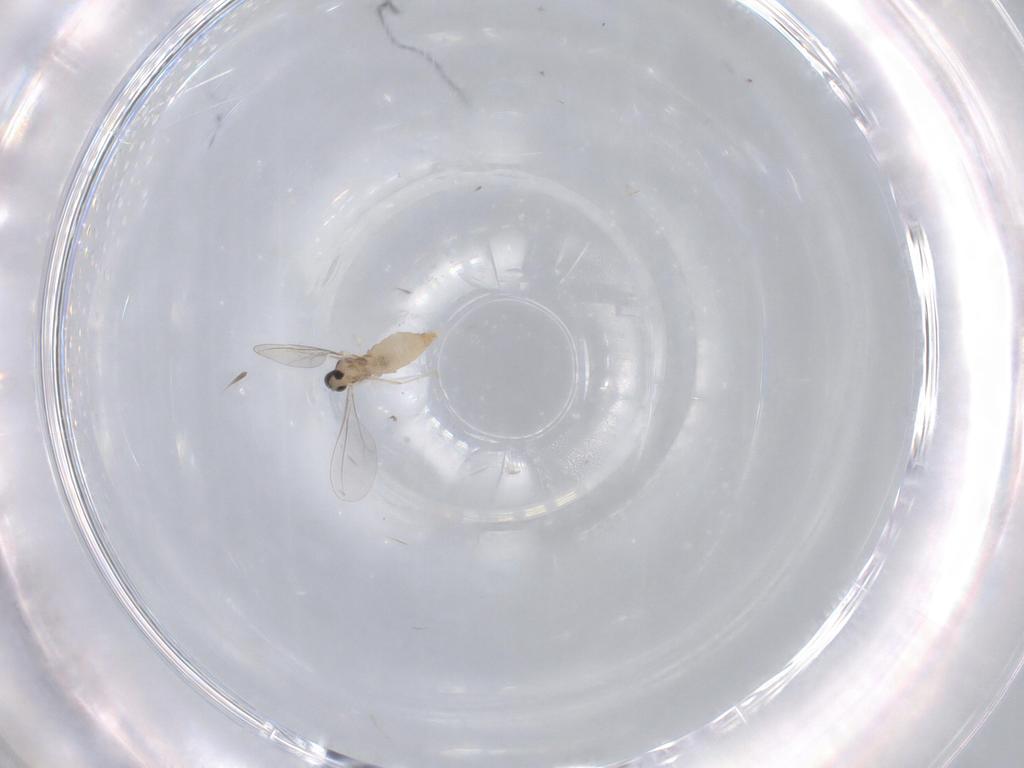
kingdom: Animalia
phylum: Arthropoda
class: Insecta
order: Diptera
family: Cecidomyiidae
